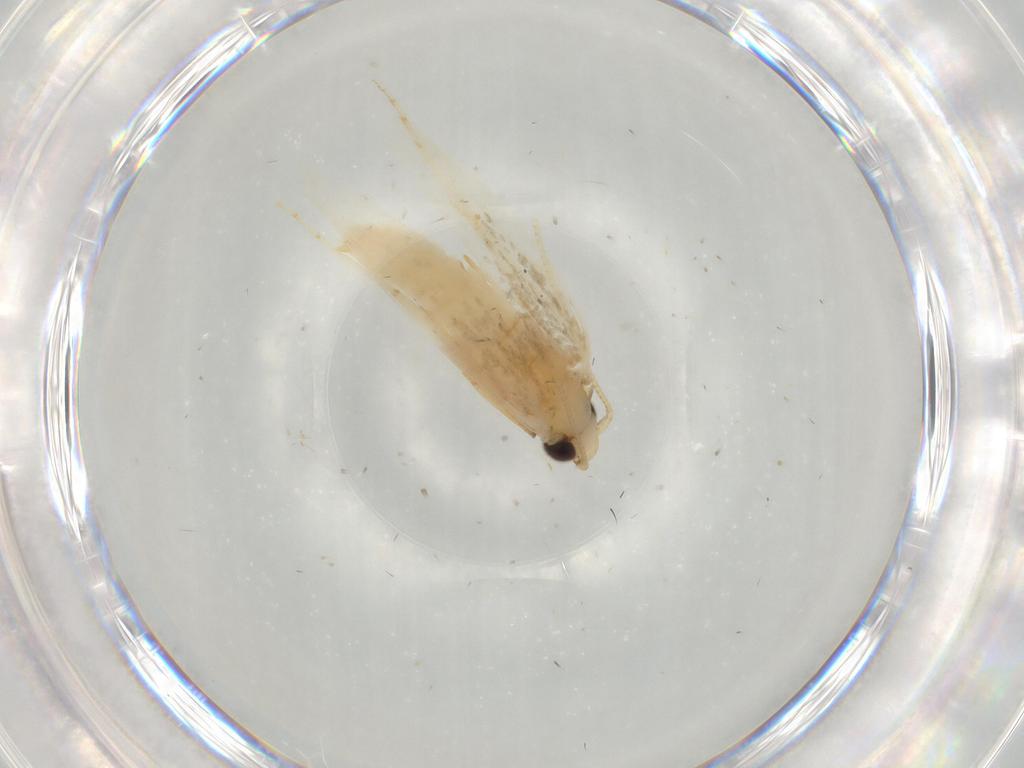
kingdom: Animalia
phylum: Arthropoda
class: Insecta
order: Lepidoptera
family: Tineidae
